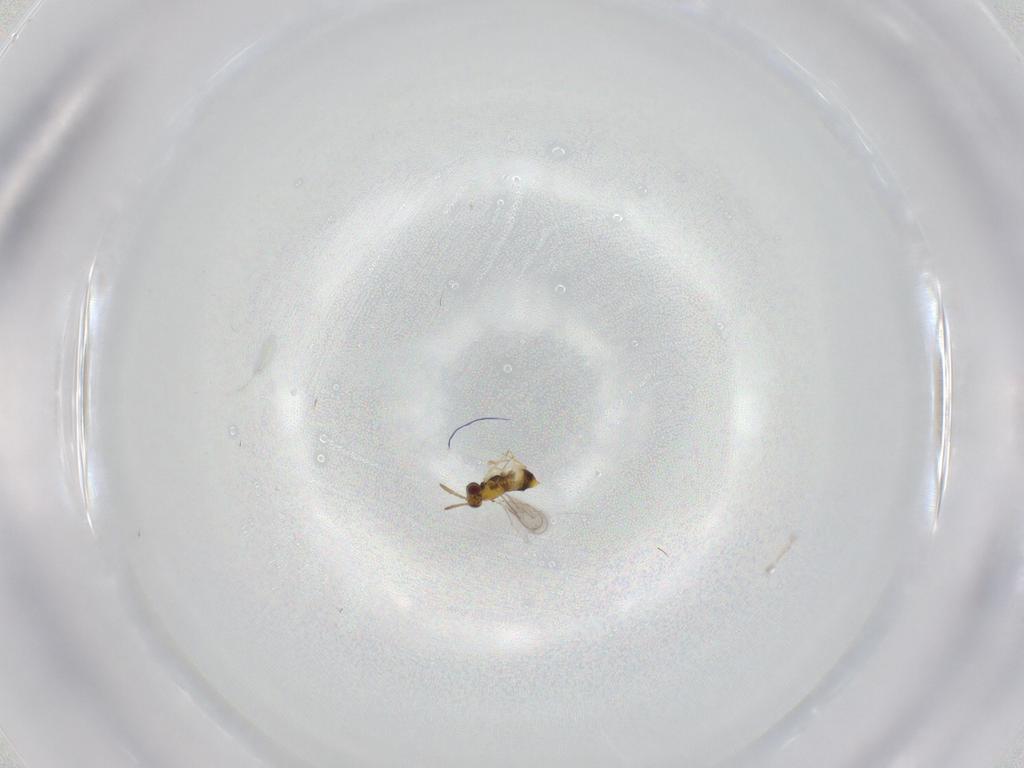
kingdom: Animalia
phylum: Arthropoda
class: Insecta
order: Hymenoptera
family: Aphelinidae
